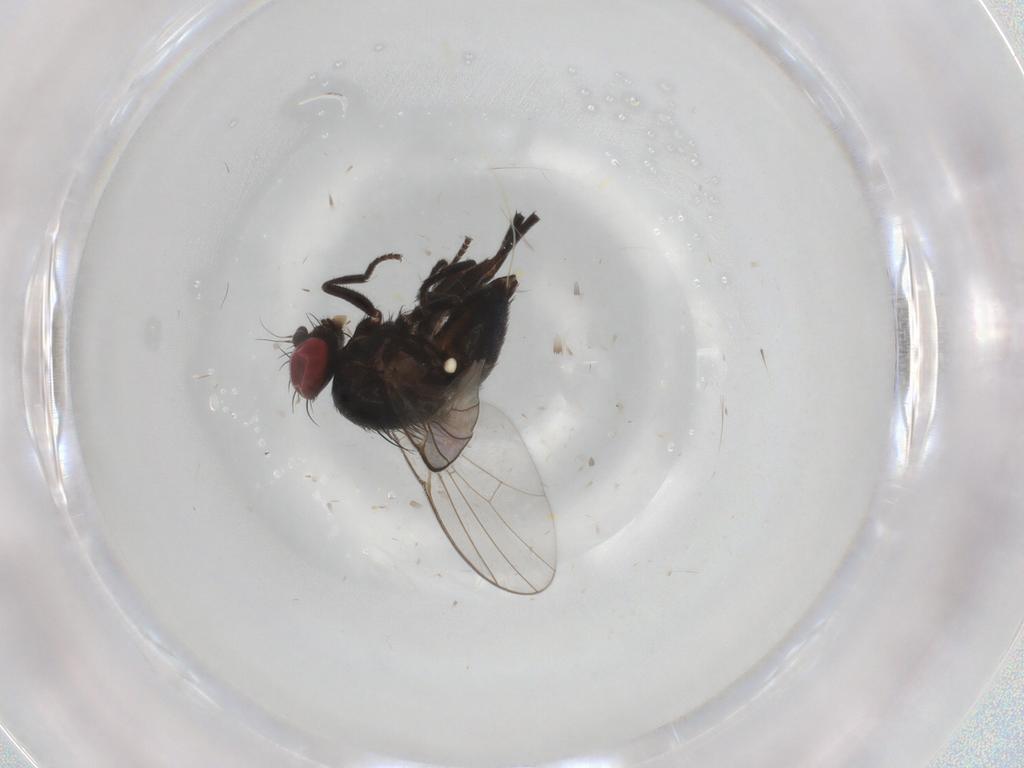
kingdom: Animalia
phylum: Arthropoda
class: Insecta
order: Diptera
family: Agromyzidae
